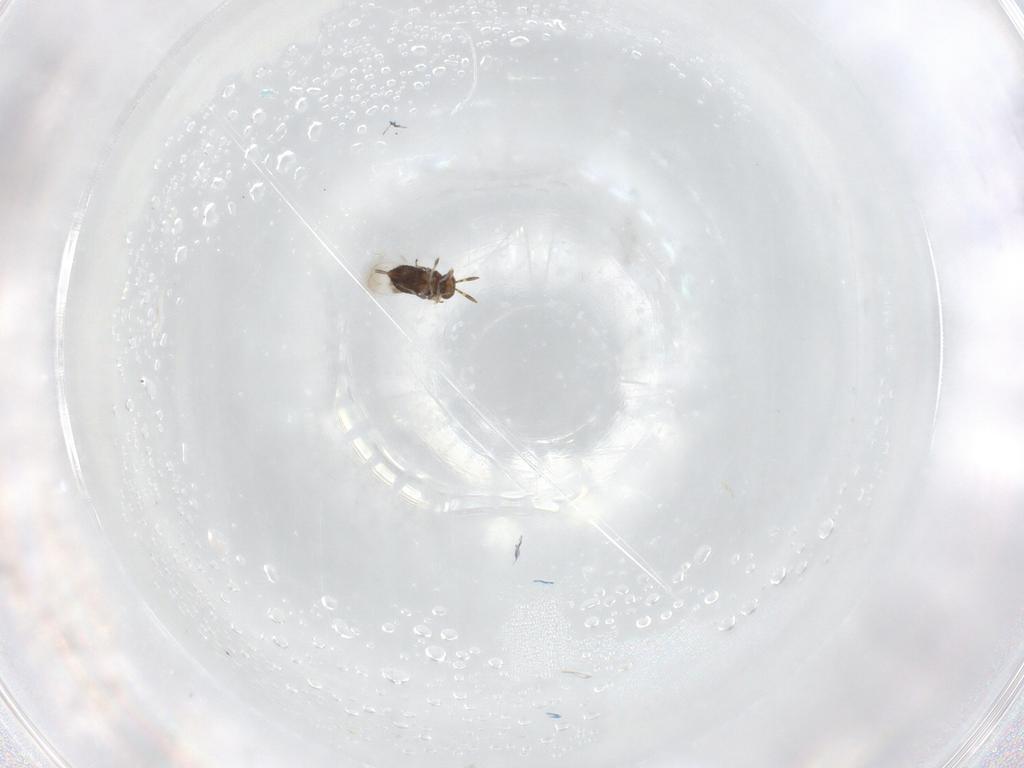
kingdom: Animalia
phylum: Arthropoda
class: Insecta
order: Hymenoptera
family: Azotidae
